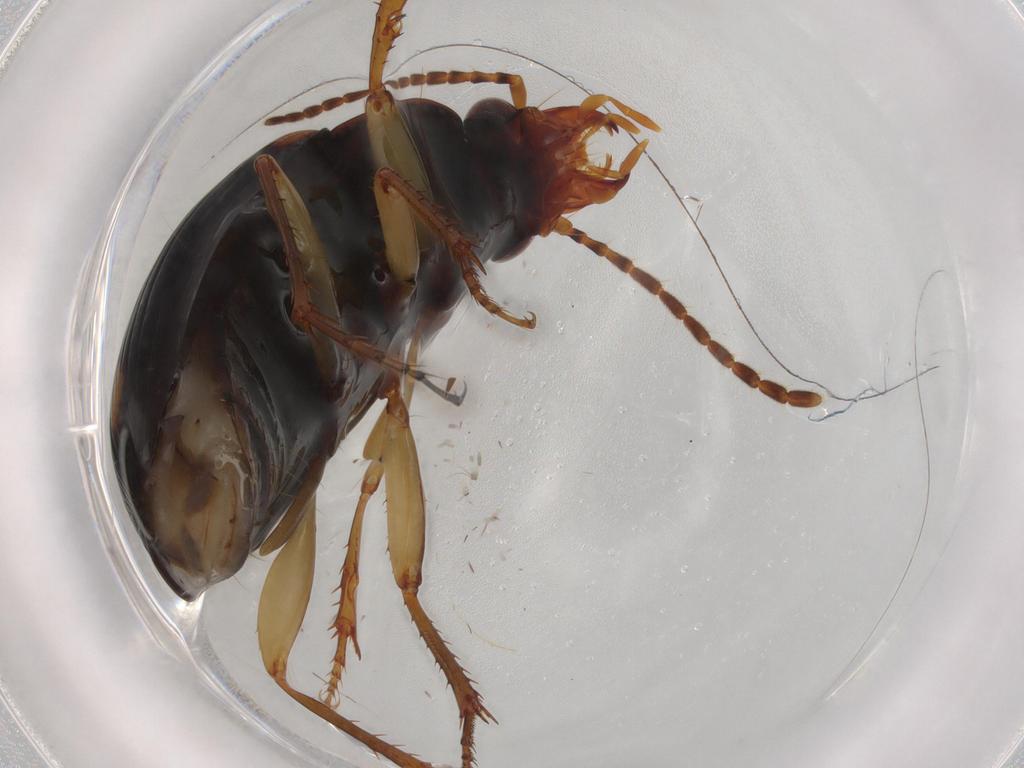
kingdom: Animalia
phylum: Arthropoda
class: Insecta
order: Coleoptera
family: Carabidae
